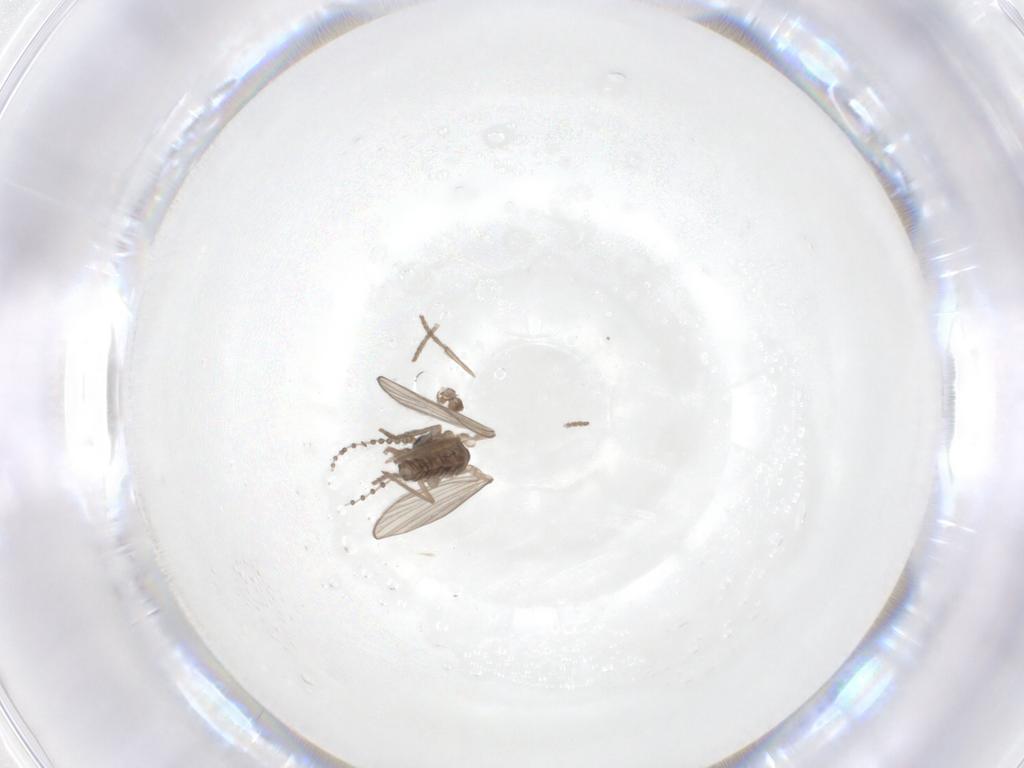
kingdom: Animalia
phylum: Arthropoda
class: Insecta
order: Diptera
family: Psychodidae
